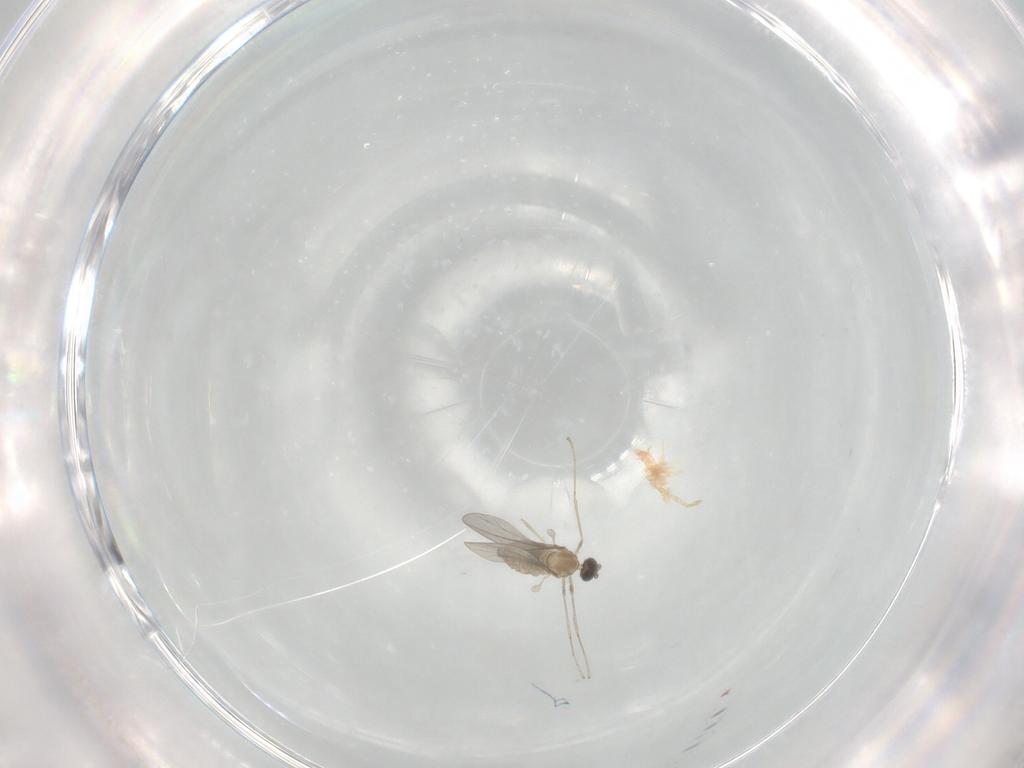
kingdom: Animalia
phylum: Arthropoda
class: Insecta
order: Diptera
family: Cecidomyiidae
